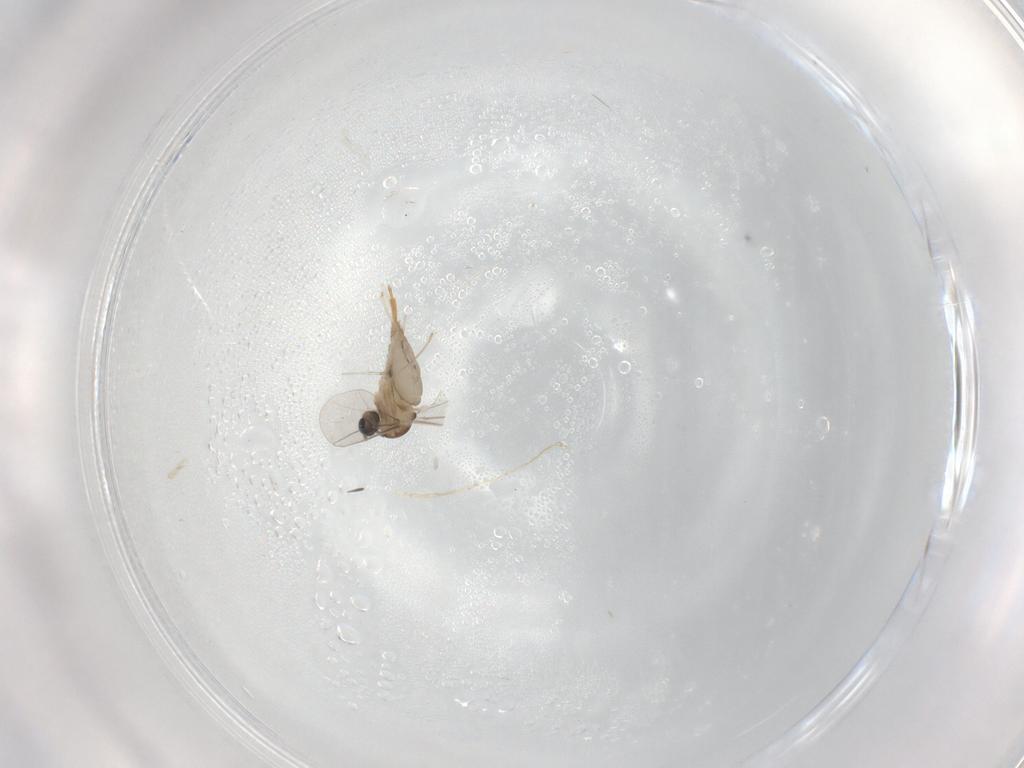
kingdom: Animalia
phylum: Arthropoda
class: Insecta
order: Diptera
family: Cecidomyiidae
